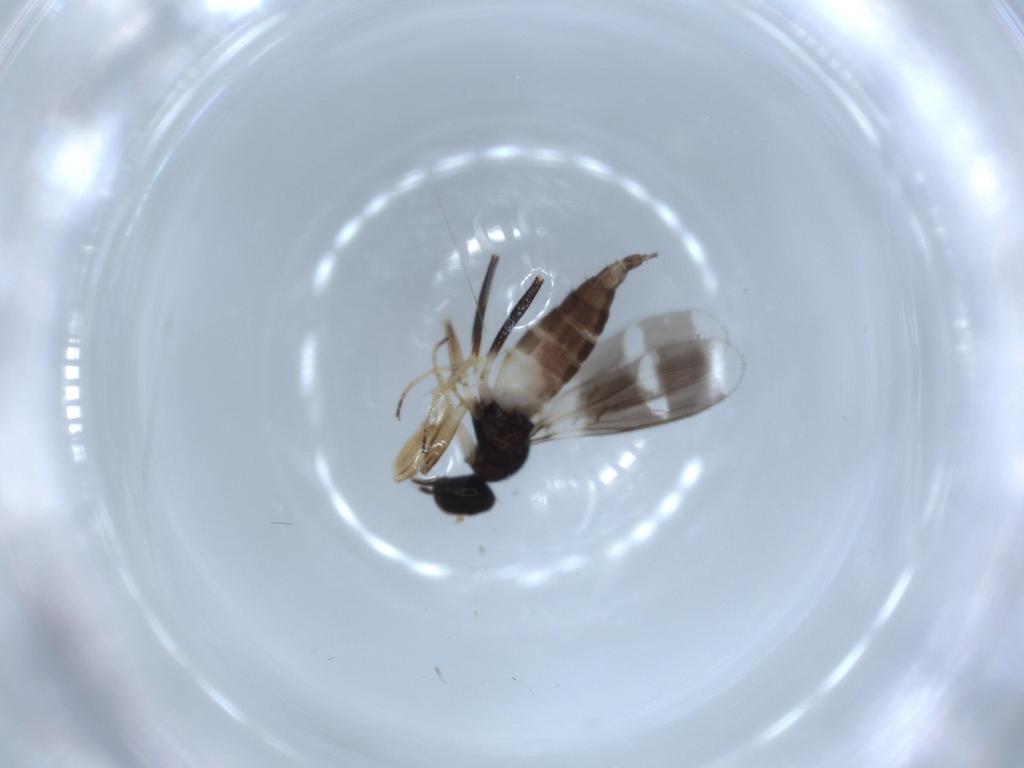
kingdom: Animalia
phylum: Arthropoda
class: Insecta
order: Diptera
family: Hybotidae
